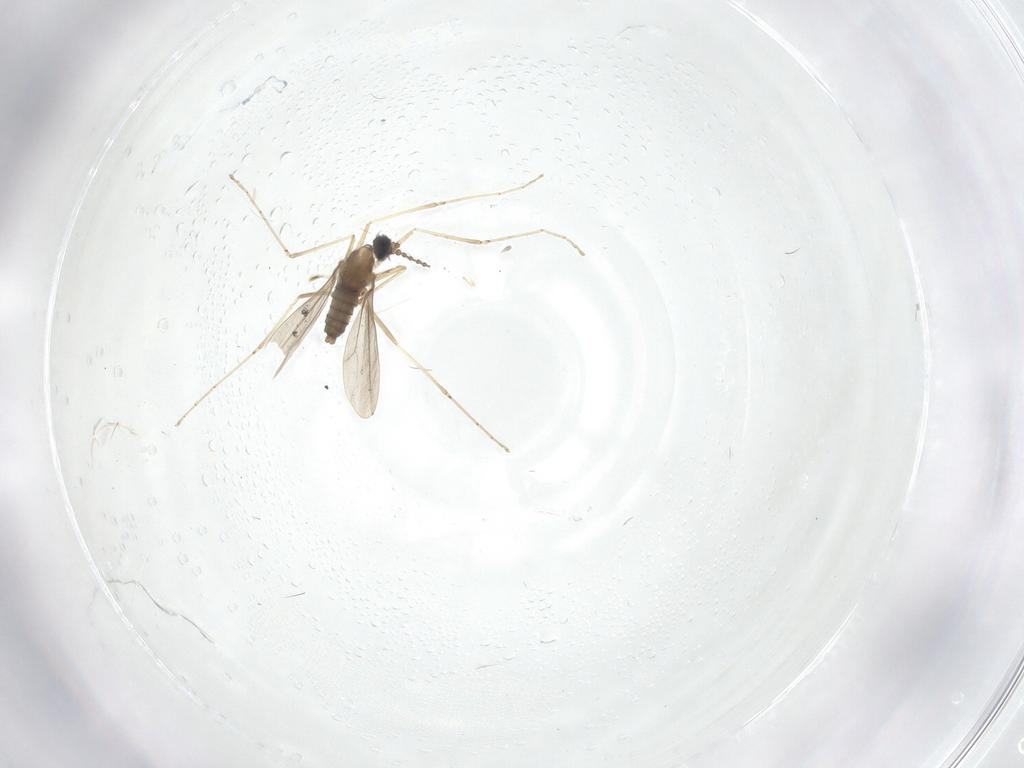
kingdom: Animalia
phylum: Arthropoda
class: Insecta
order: Diptera
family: Cecidomyiidae
